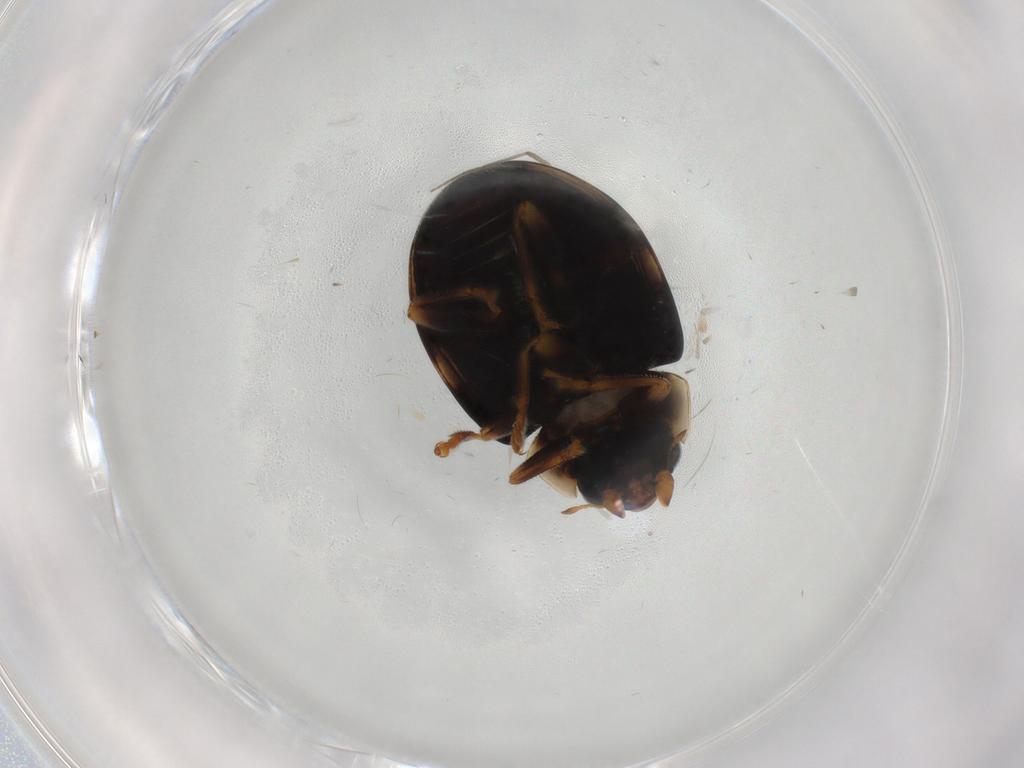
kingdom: Animalia
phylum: Arthropoda
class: Insecta
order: Coleoptera
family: Coccinellidae
